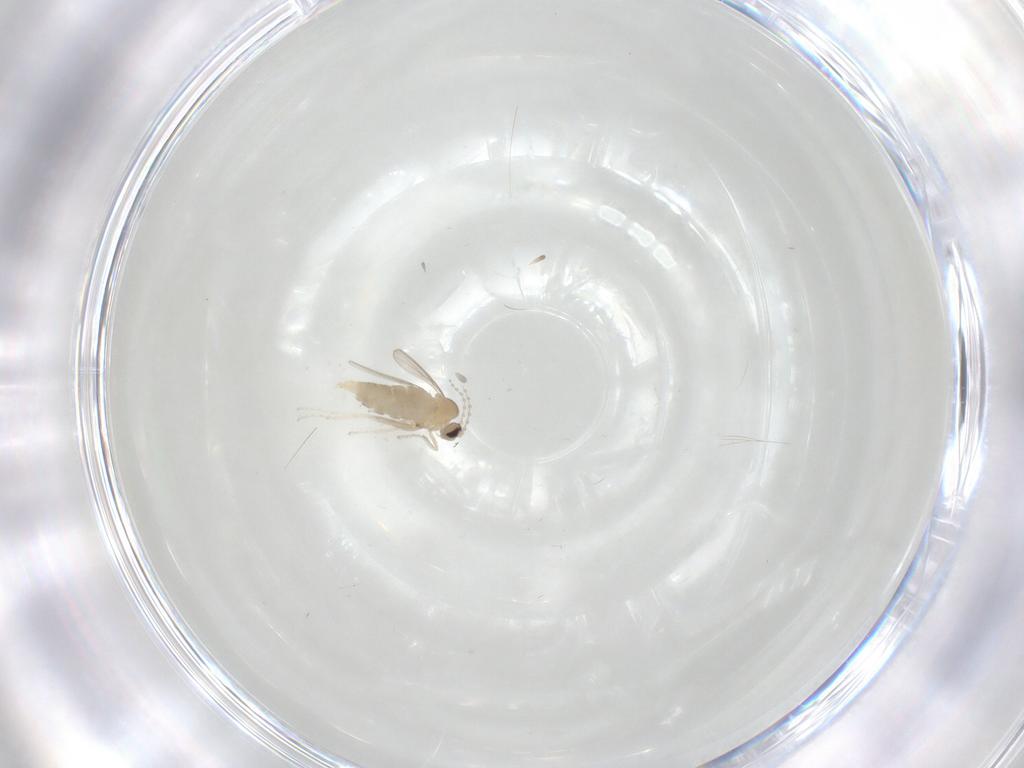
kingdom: Animalia
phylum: Arthropoda
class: Insecta
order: Diptera
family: Cecidomyiidae
